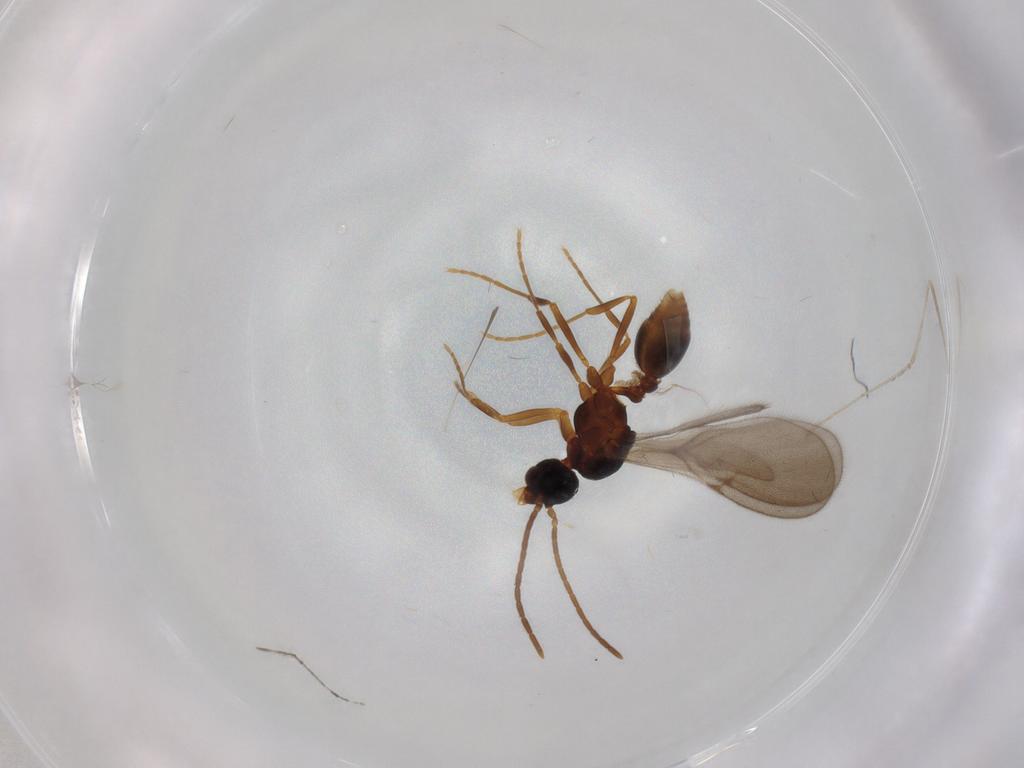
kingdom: Animalia
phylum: Arthropoda
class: Insecta
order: Hymenoptera
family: Formicidae
